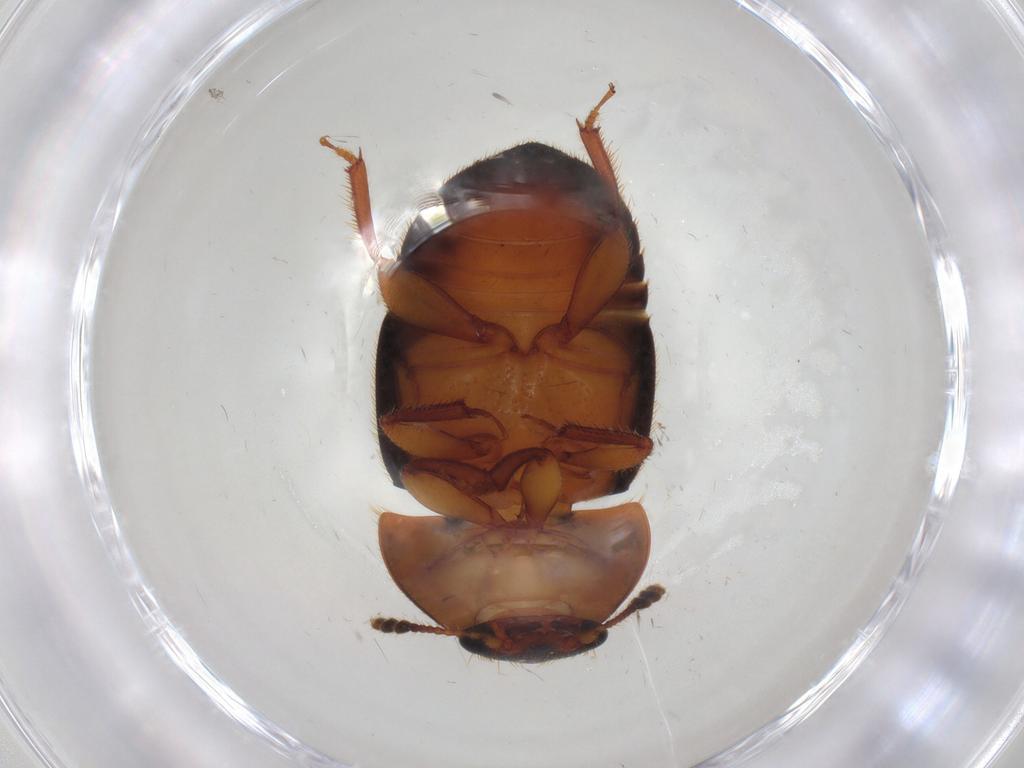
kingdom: Animalia
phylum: Arthropoda
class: Insecta
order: Coleoptera
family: Nitidulidae
